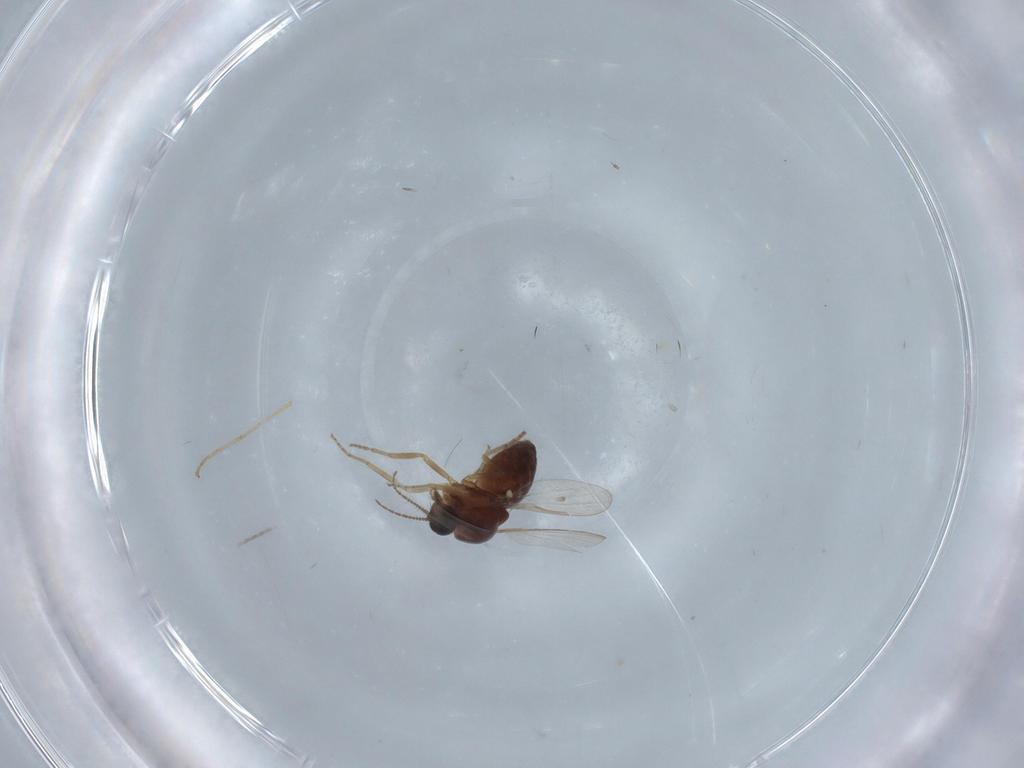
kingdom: Animalia
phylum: Arthropoda
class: Insecta
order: Diptera
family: Ceratopogonidae
